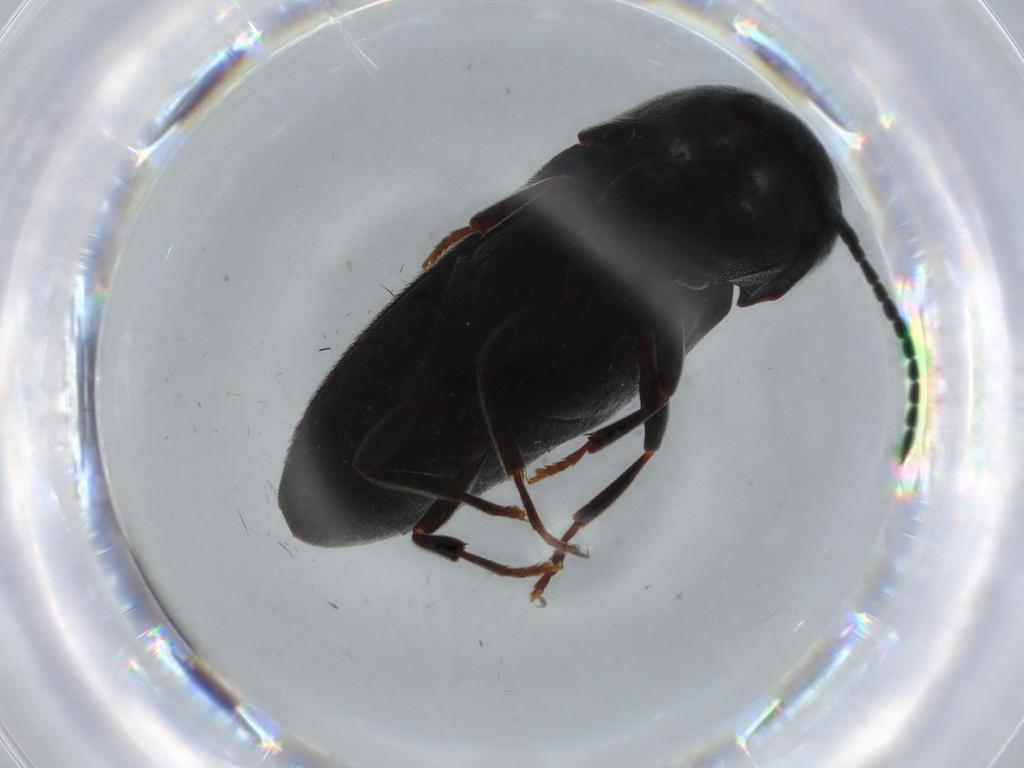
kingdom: Animalia
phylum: Arthropoda
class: Insecta
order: Coleoptera
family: Eucnemidae
